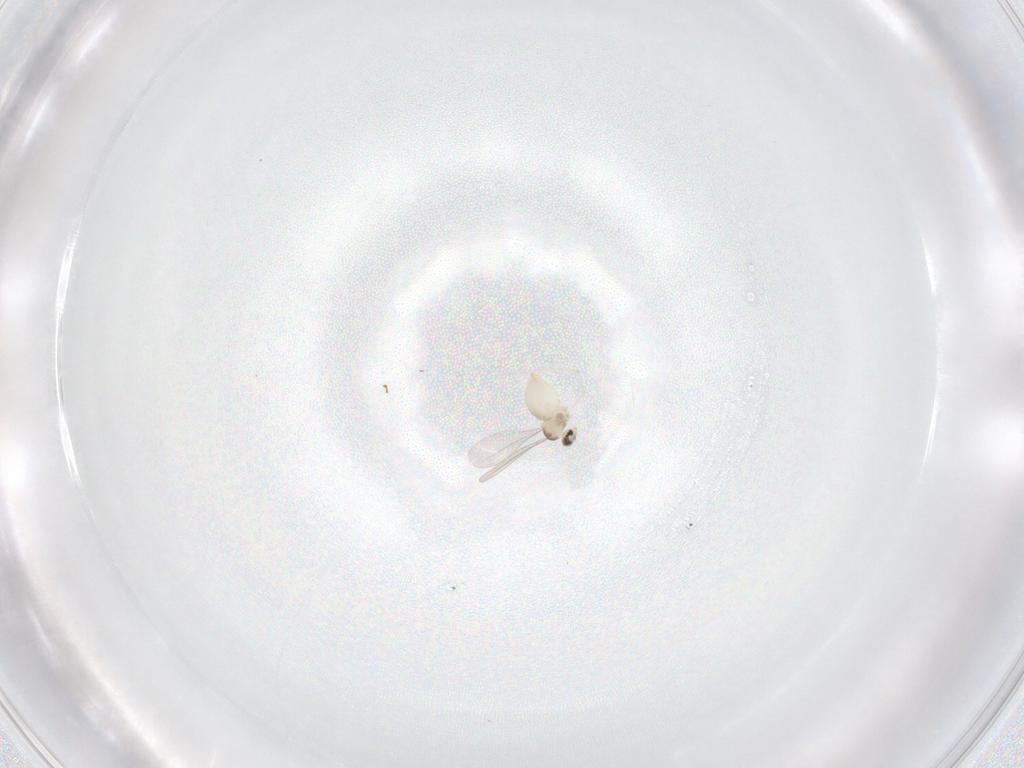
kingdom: Animalia
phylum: Arthropoda
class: Insecta
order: Diptera
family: Cecidomyiidae
